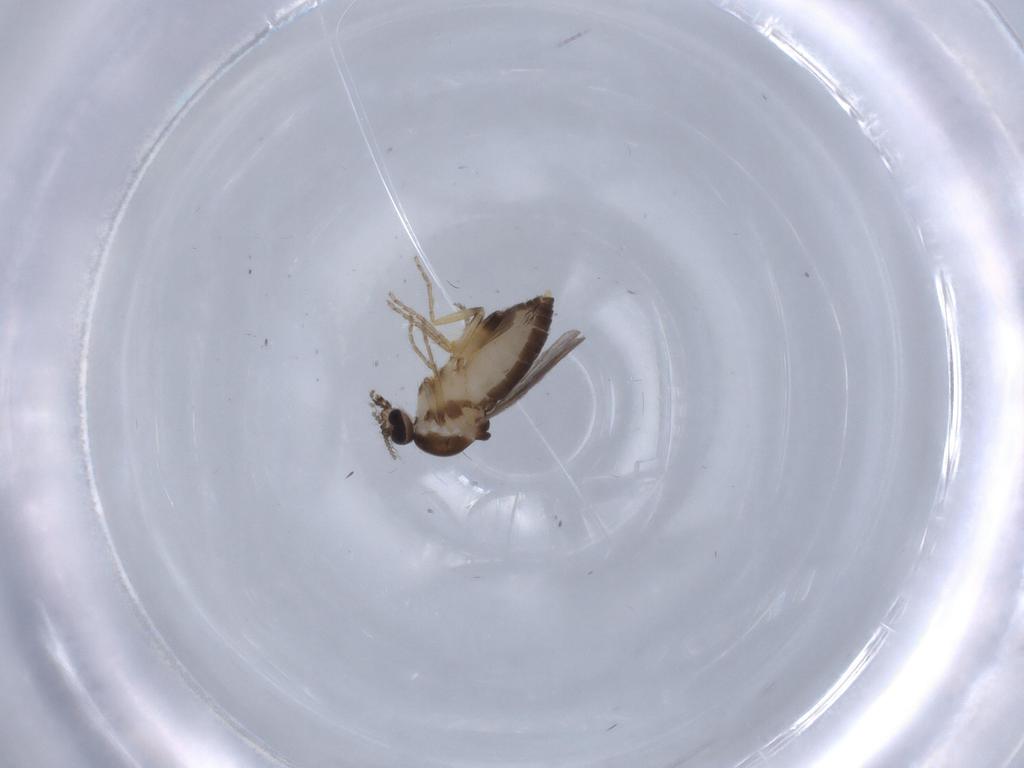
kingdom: Animalia
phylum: Arthropoda
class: Insecta
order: Diptera
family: Ceratopogonidae
